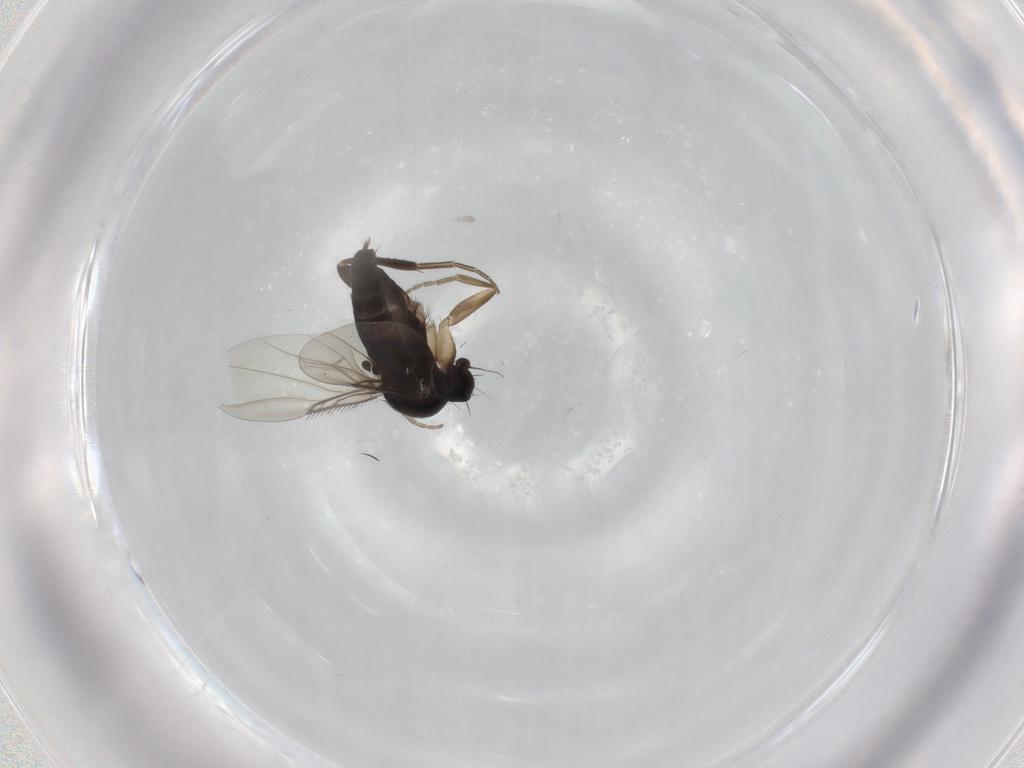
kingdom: Animalia
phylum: Arthropoda
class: Insecta
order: Diptera
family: Phoridae
